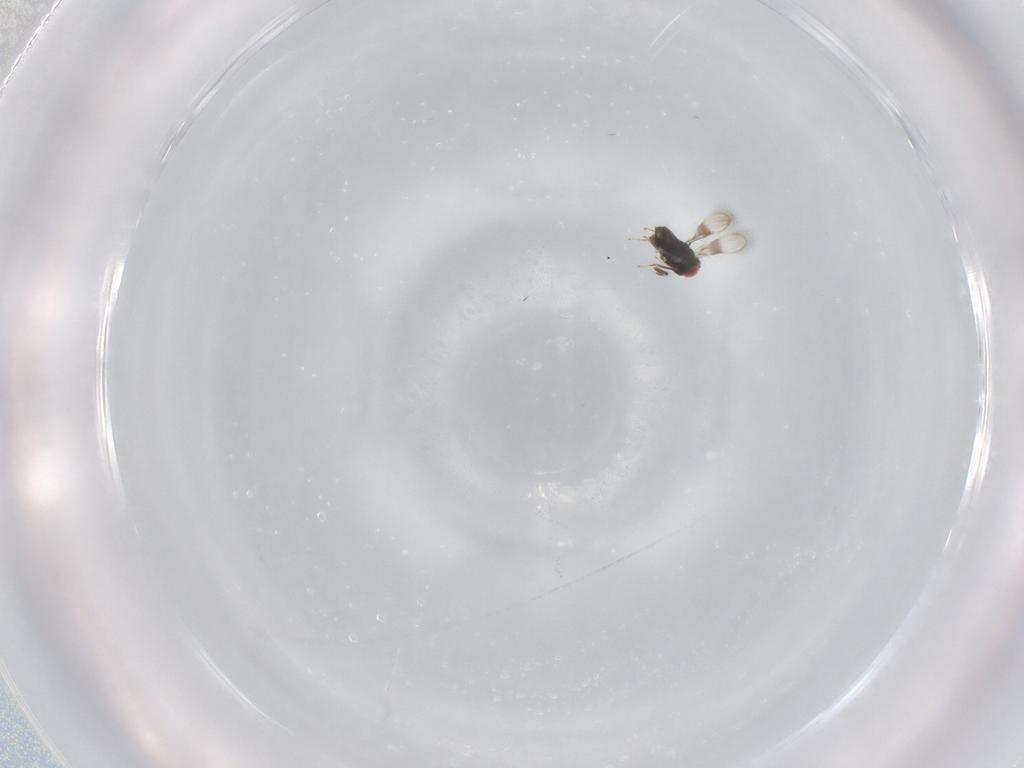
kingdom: Animalia
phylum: Arthropoda
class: Insecta
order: Hymenoptera
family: Azotidae
